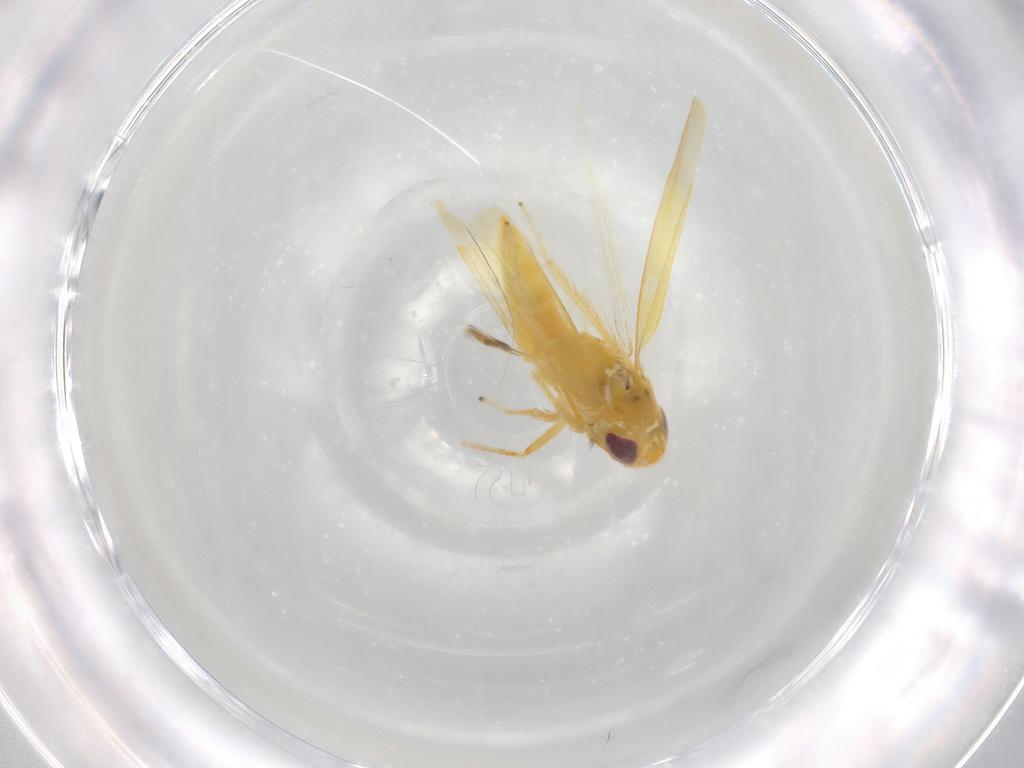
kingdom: Animalia
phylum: Arthropoda
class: Insecta
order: Hemiptera
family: Cicadellidae
